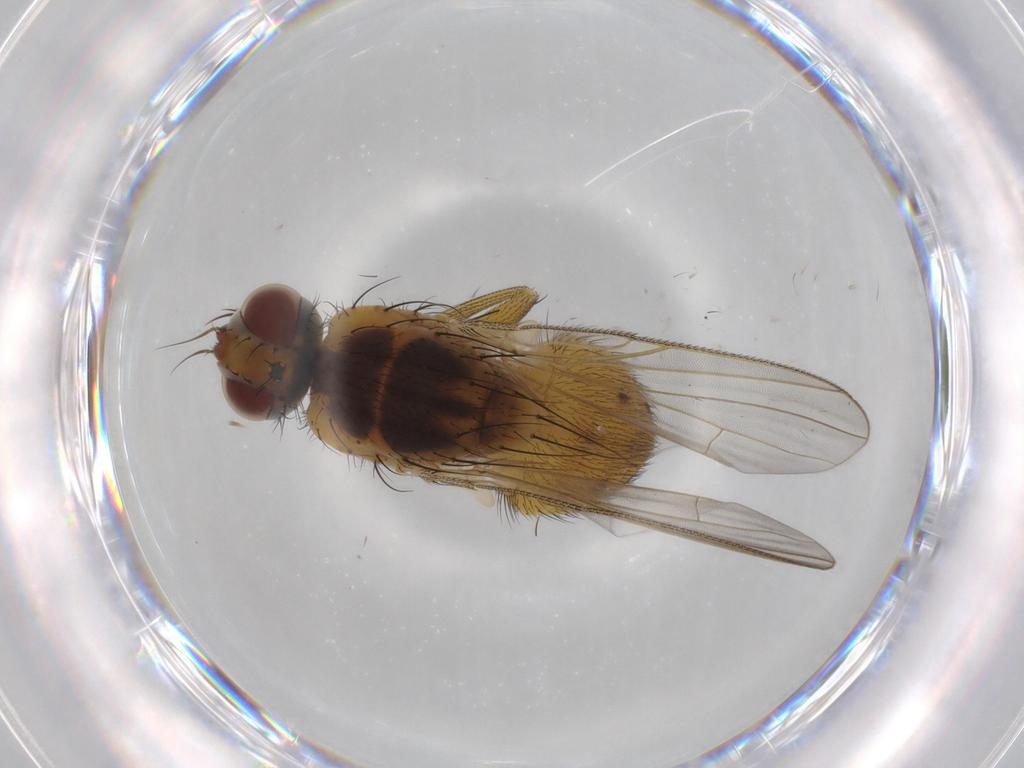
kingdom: Animalia
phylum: Arthropoda
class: Insecta
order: Diptera
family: Muscidae
